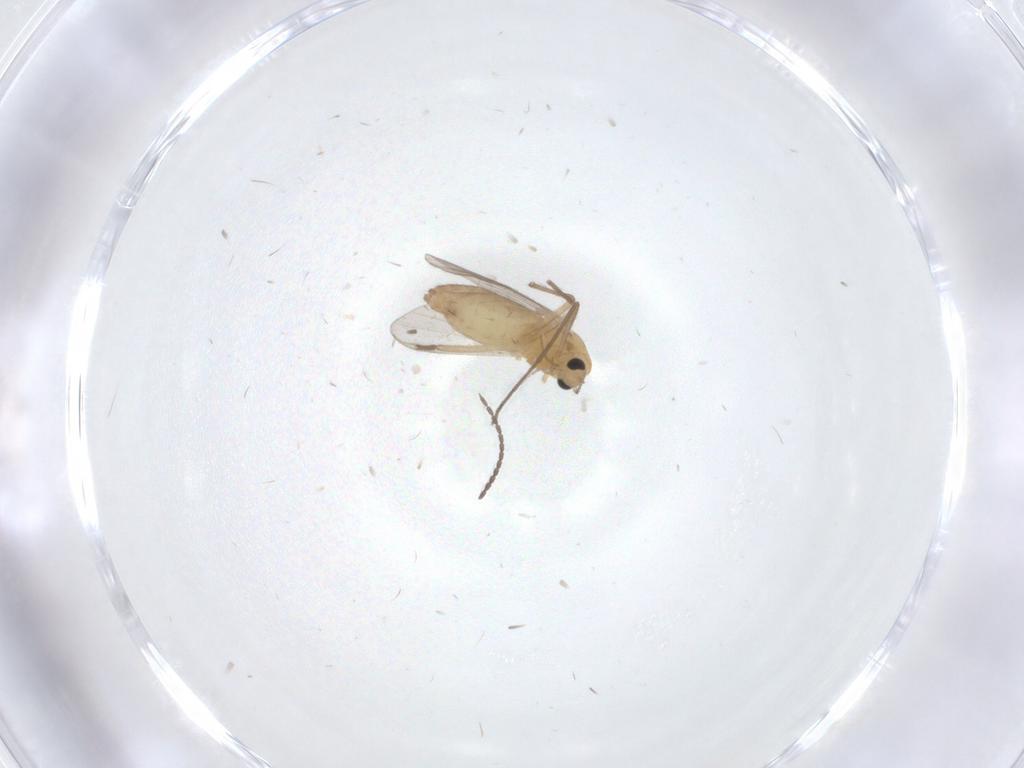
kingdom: Animalia
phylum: Arthropoda
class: Insecta
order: Diptera
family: Chironomidae
